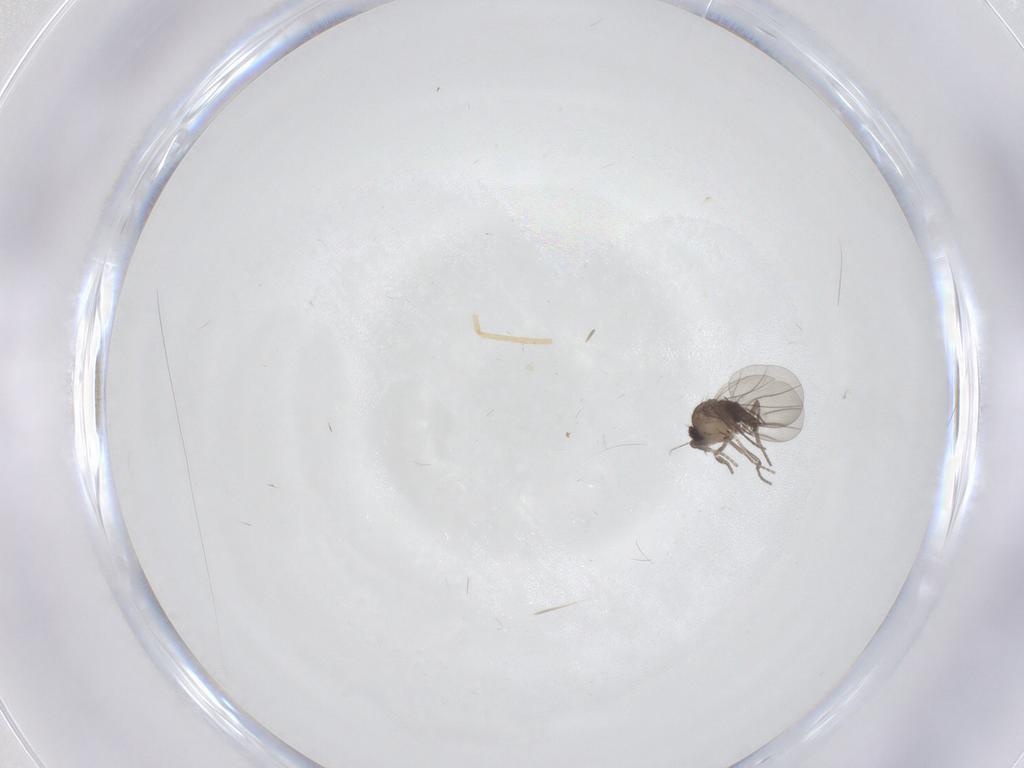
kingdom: Animalia
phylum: Arthropoda
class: Insecta
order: Diptera
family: Phoridae
